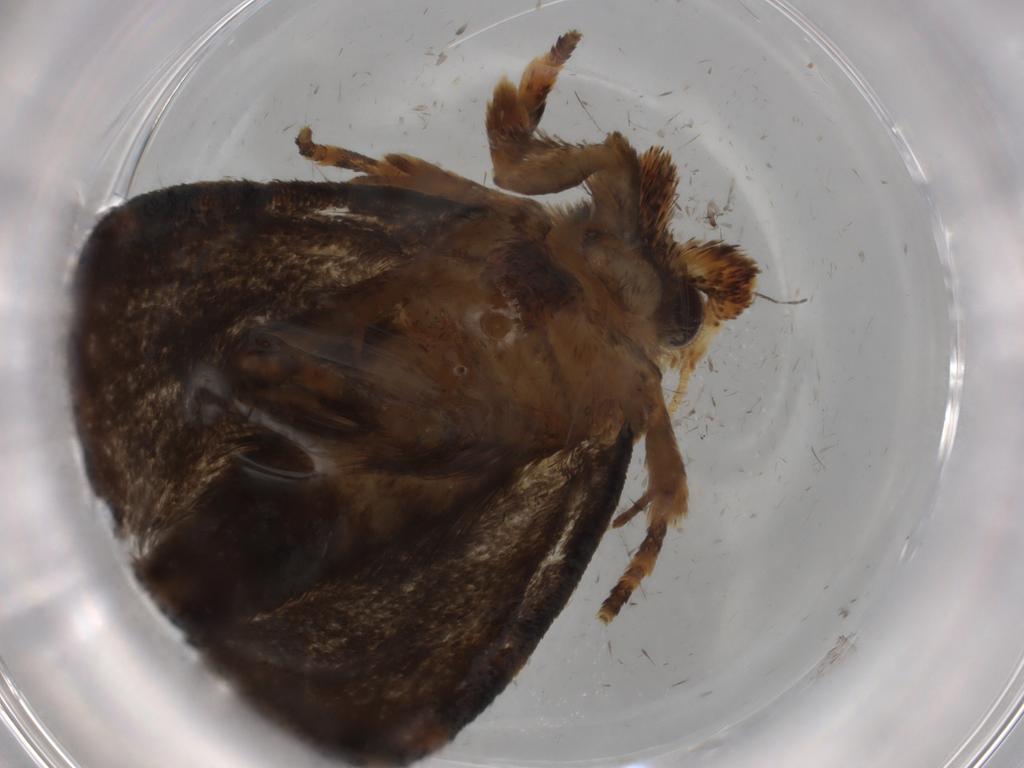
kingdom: Animalia
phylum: Arthropoda
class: Insecta
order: Lepidoptera
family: Tineidae
